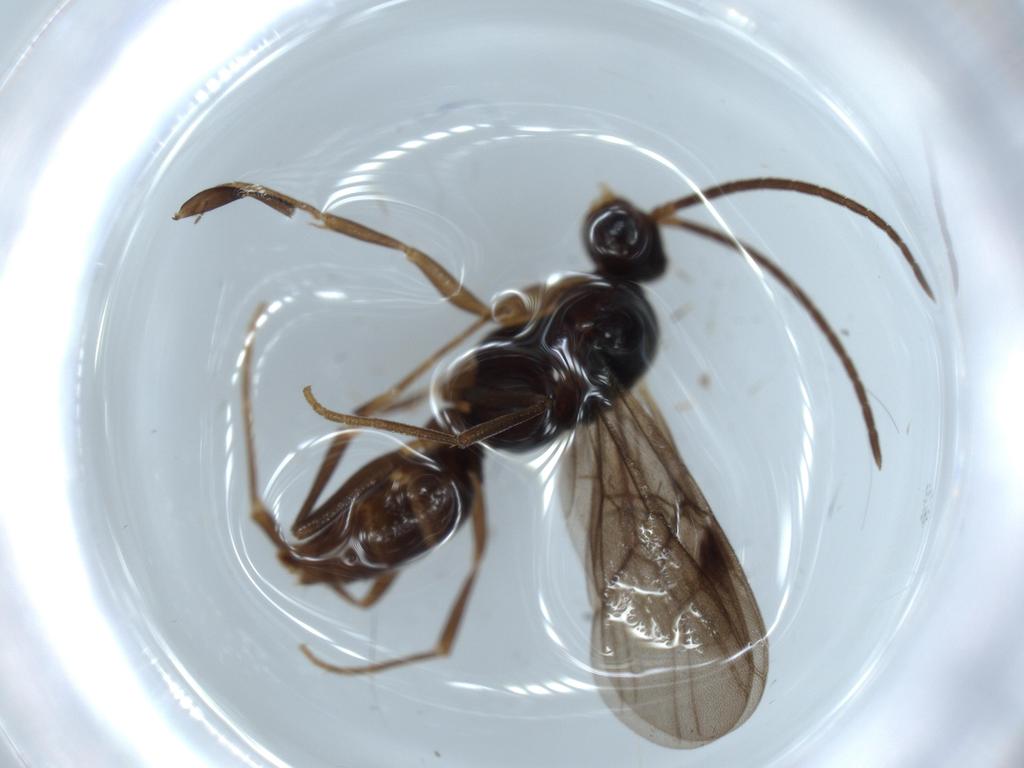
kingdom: Animalia
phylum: Arthropoda
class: Insecta
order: Hymenoptera
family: Formicidae
